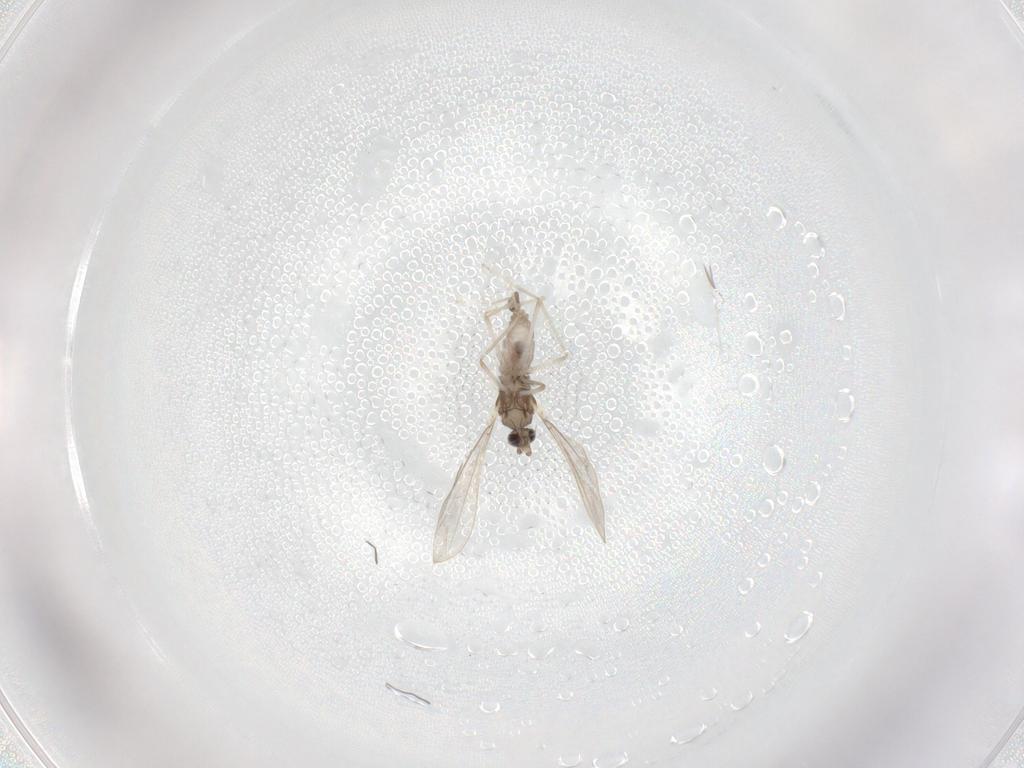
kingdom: Animalia
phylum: Arthropoda
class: Insecta
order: Diptera
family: Cecidomyiidae
